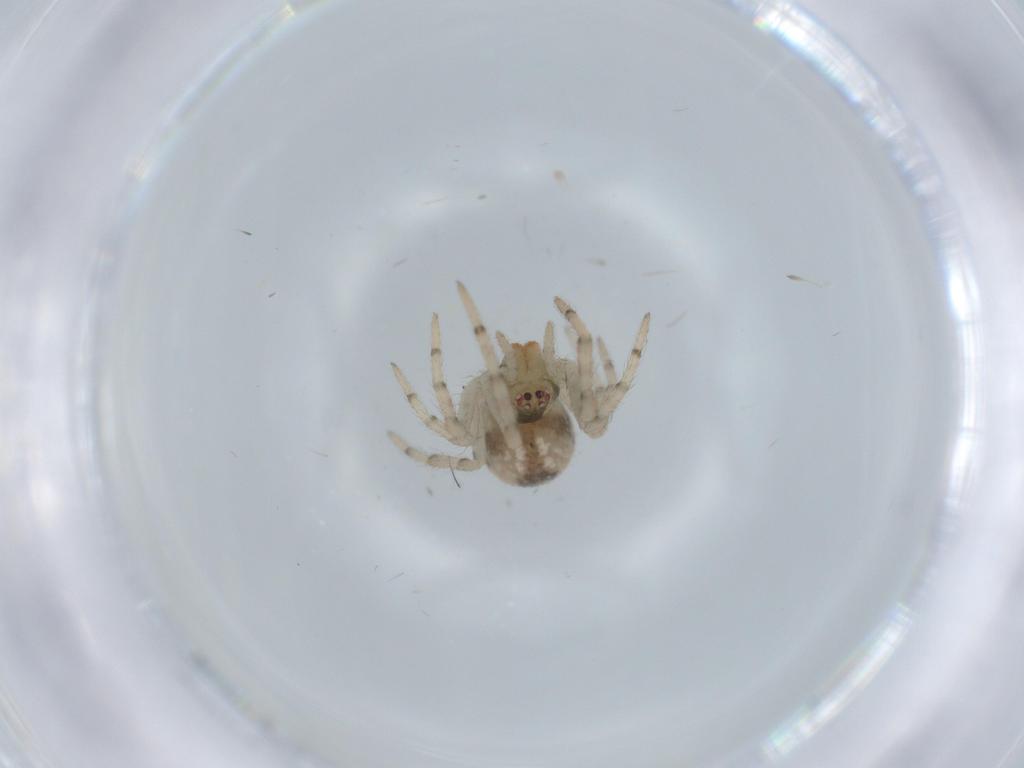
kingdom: Animalia
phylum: Arthropoda
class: Arachnida
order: Araneae
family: Theridiidae
